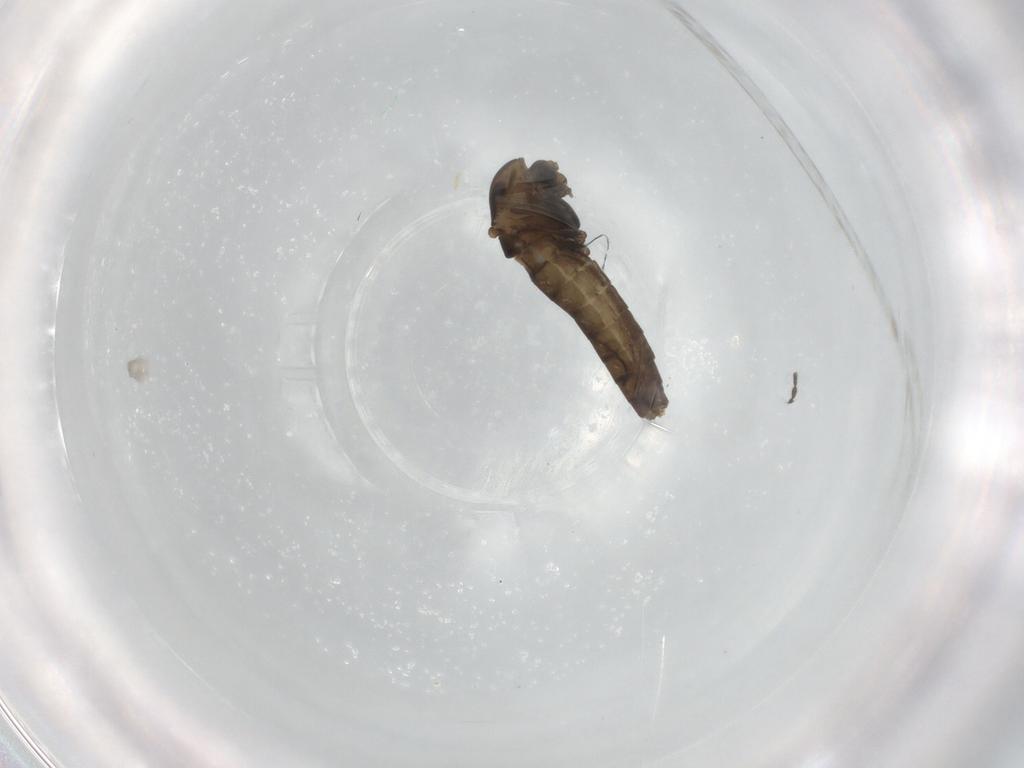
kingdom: Animalia
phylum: Arthropoda
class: Insecta
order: Diptera
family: Chironomidae
